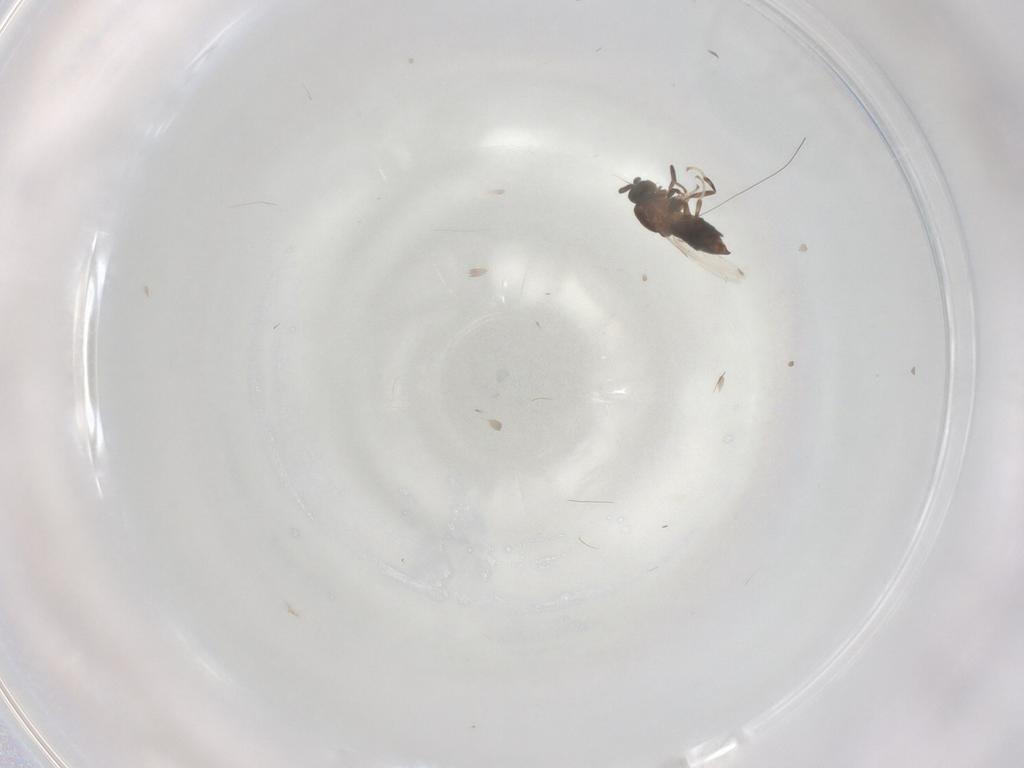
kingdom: Animalia
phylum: Arthropoda
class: Insecta
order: Diptera
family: Scatopsidae
